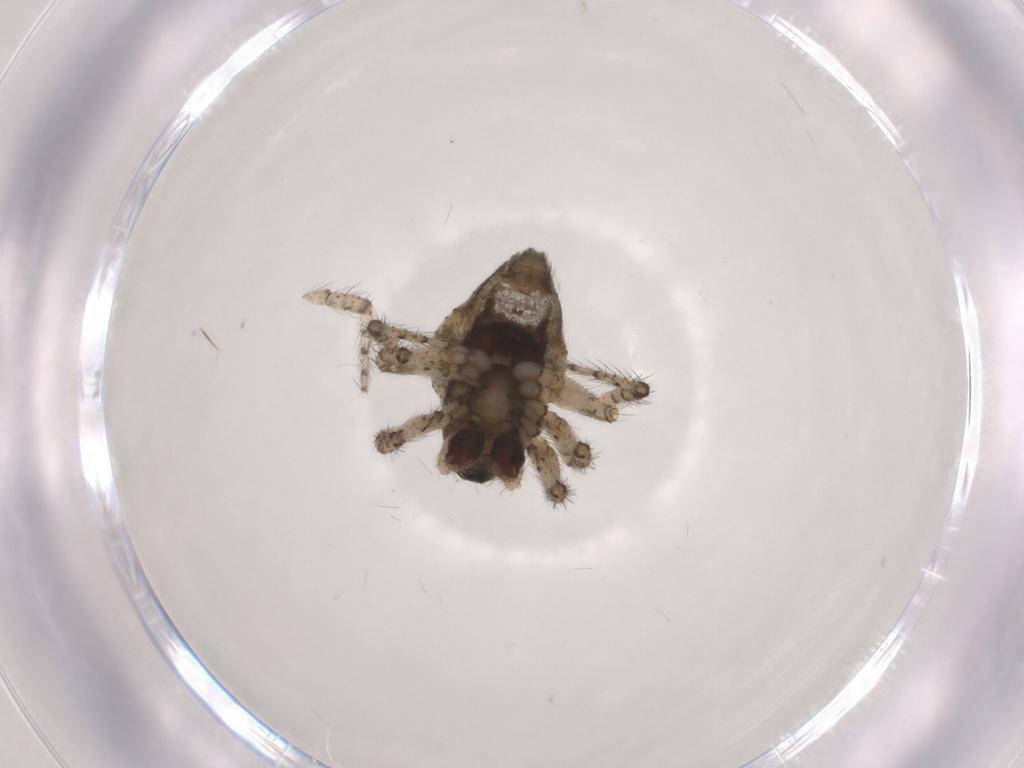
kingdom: Animalia
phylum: Arthropoda
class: Arachnida
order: Araneae
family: Theridiidae
